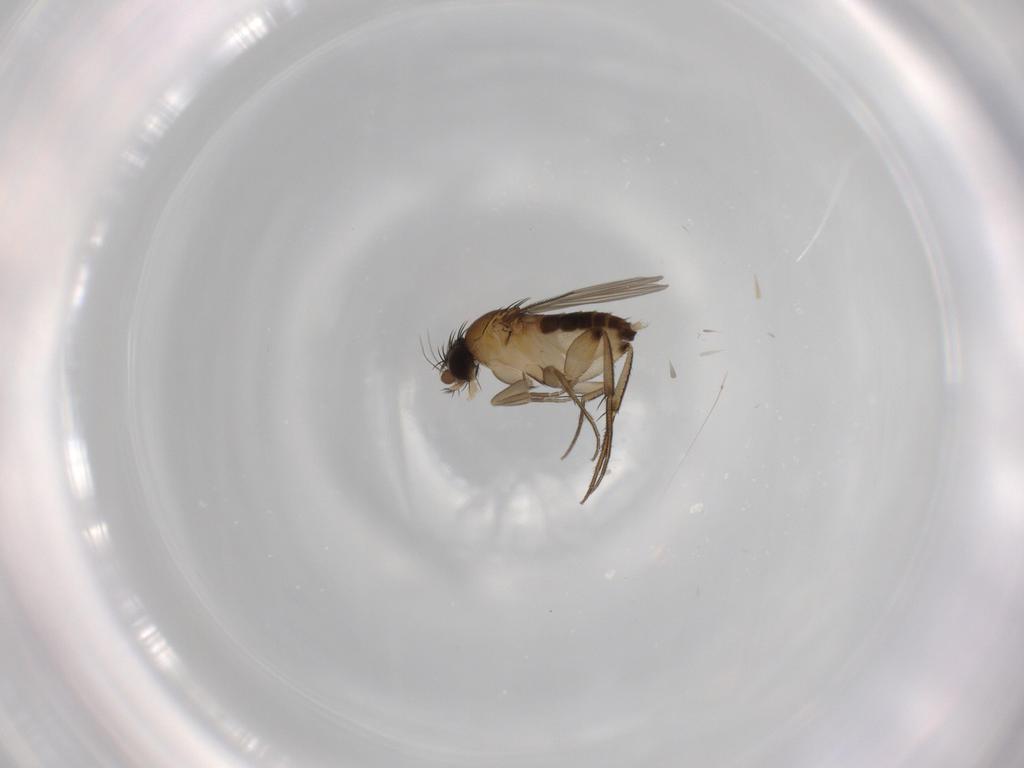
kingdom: Animalia
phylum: Arthropoda
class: Insecta
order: Diptera
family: Phoridae
